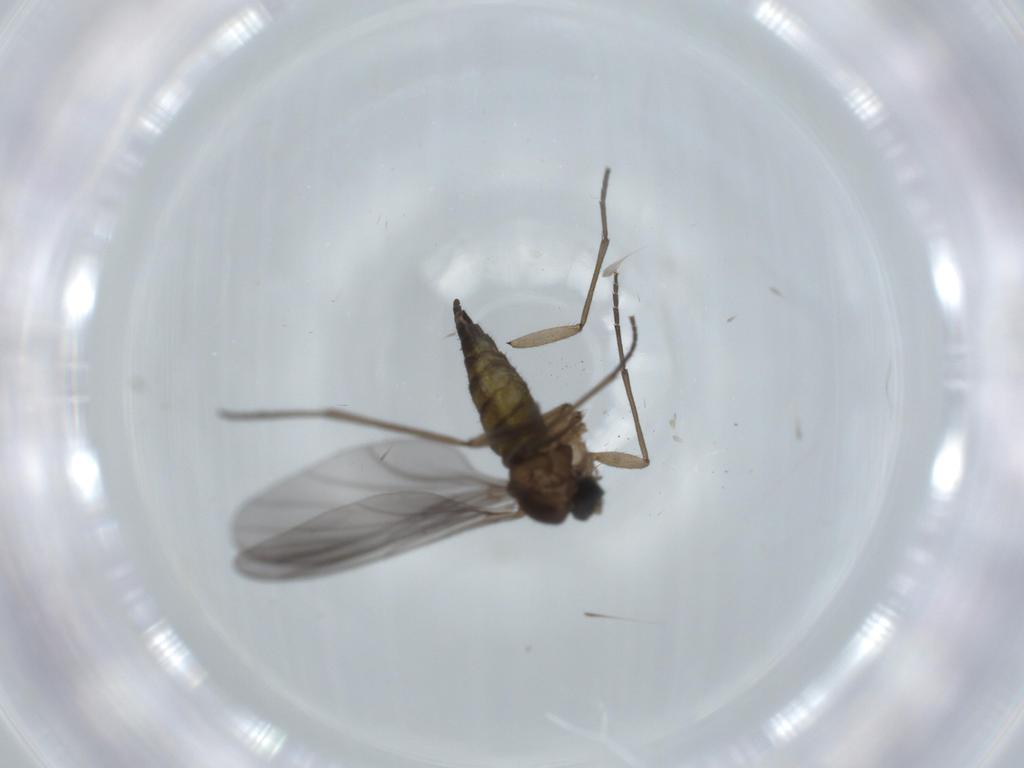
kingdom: Animalia
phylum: Arthropoda
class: Insecta
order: Diptera
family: Sciaridae
